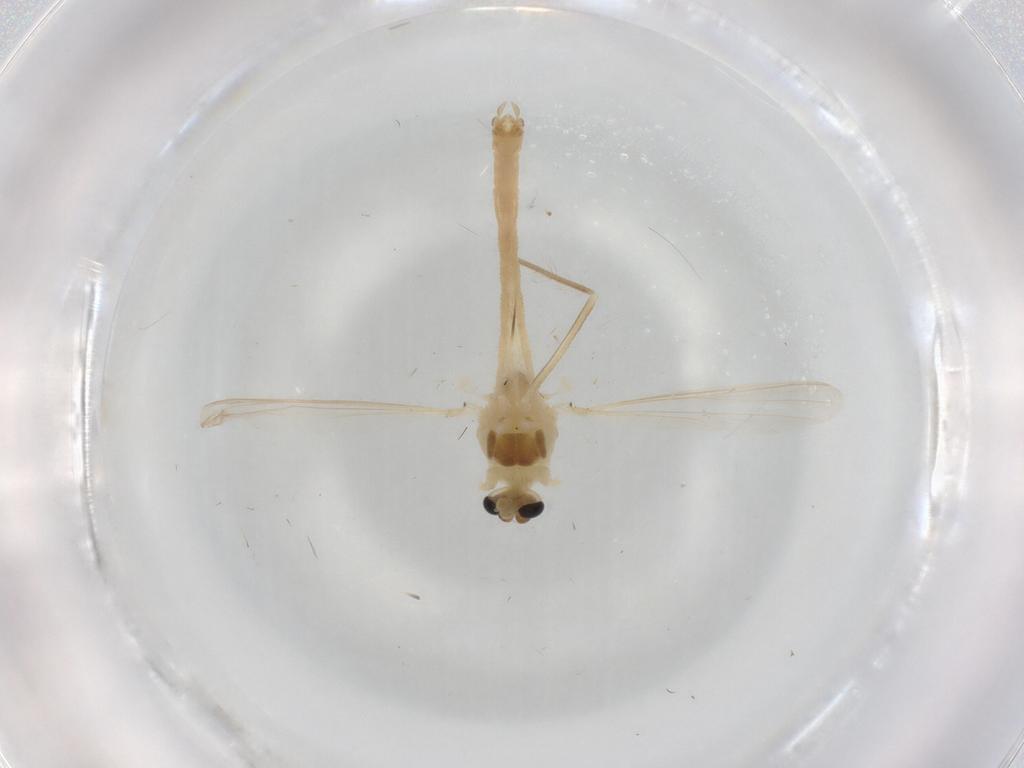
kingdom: Animalia
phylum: Arthropoda
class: Insecta
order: Diptera
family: Chironomidae
